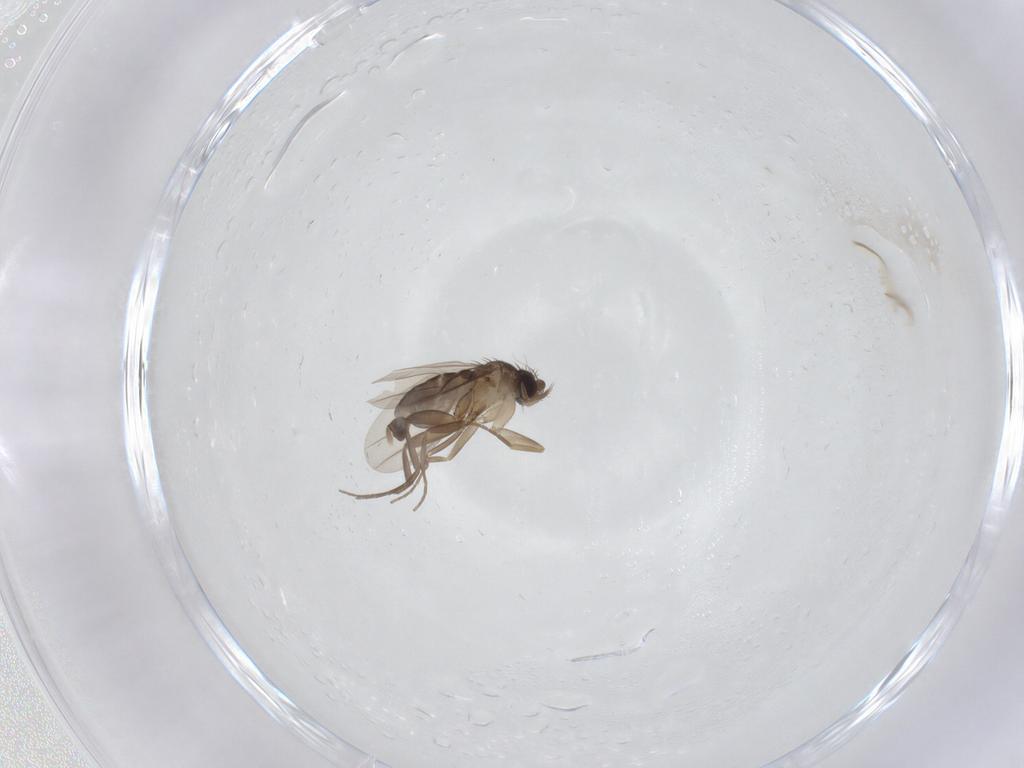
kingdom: Animalia
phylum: Arthropoda
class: Insecta
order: Diptera
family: Phoridae
